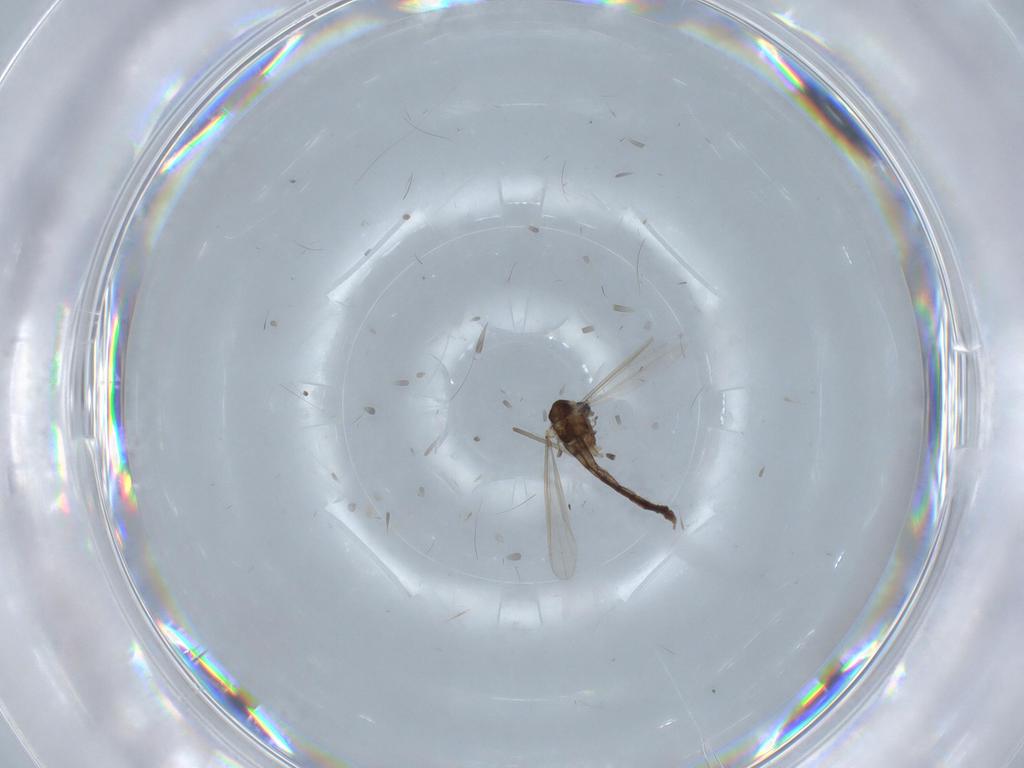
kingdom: Animalia
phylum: Arthropoda
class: Insecta
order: Diptera
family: Chironomidae
